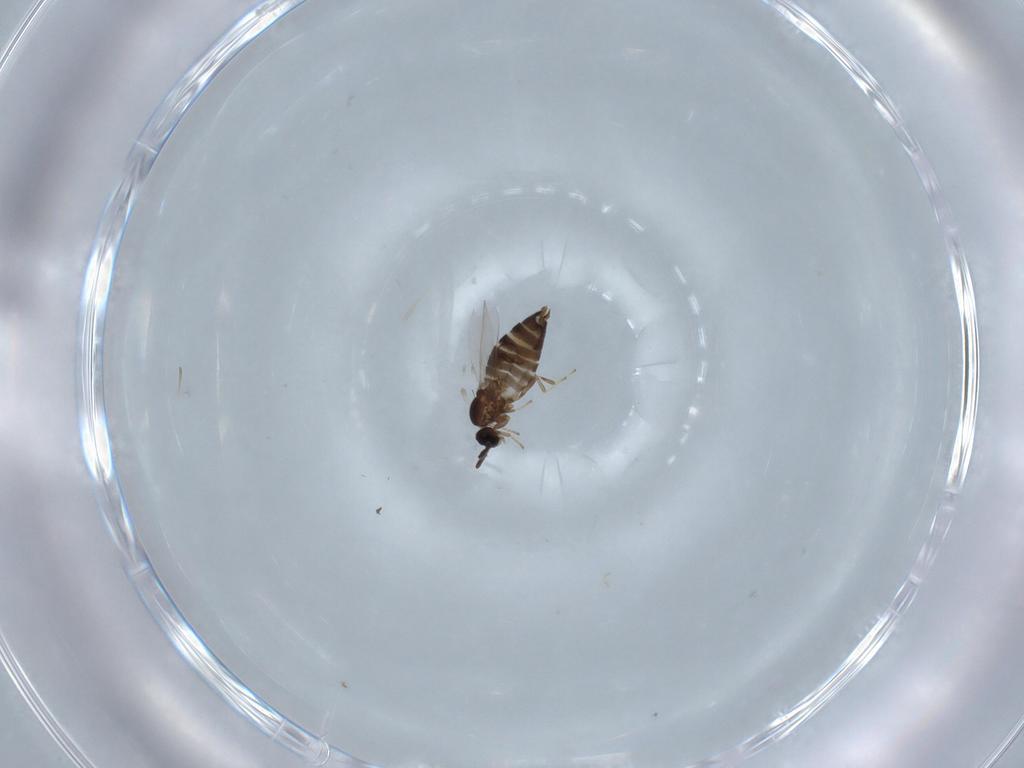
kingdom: Animalia
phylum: Arthropoda
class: Insecta
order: Diptera
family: Scatopsidae
